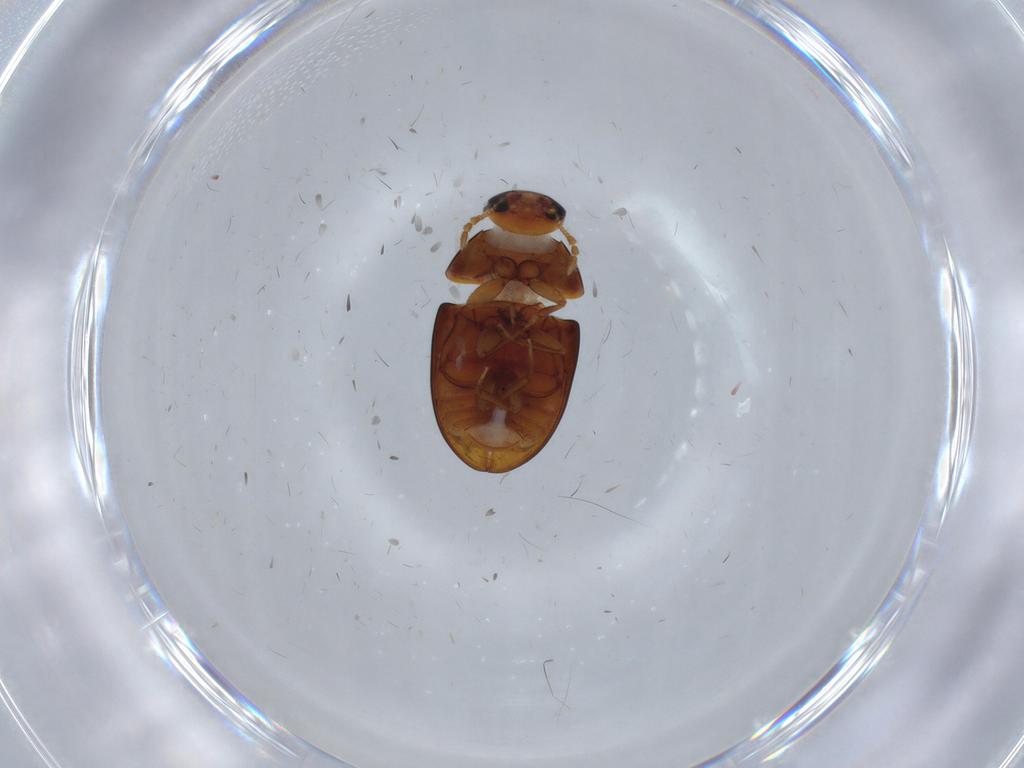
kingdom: Animalia
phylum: Arthropoda
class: Insecta
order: Coleoptera
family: Phalacridae
